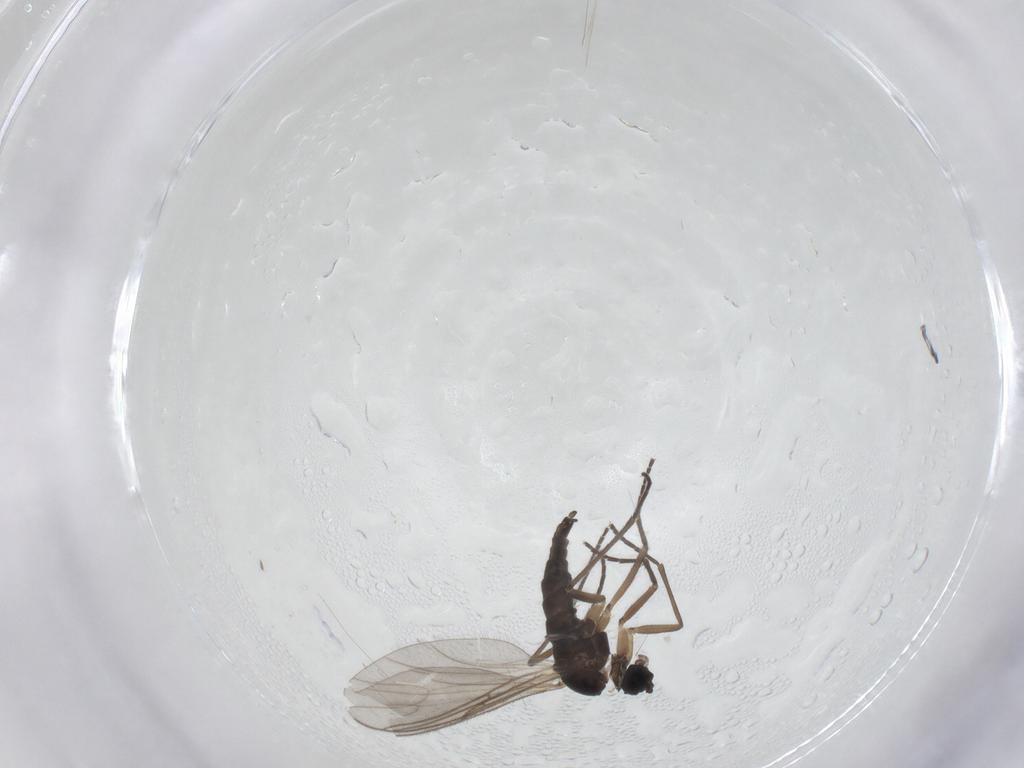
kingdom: Animalia
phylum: Arthropoda
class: Insecta
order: Diptera
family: Sciaridae
